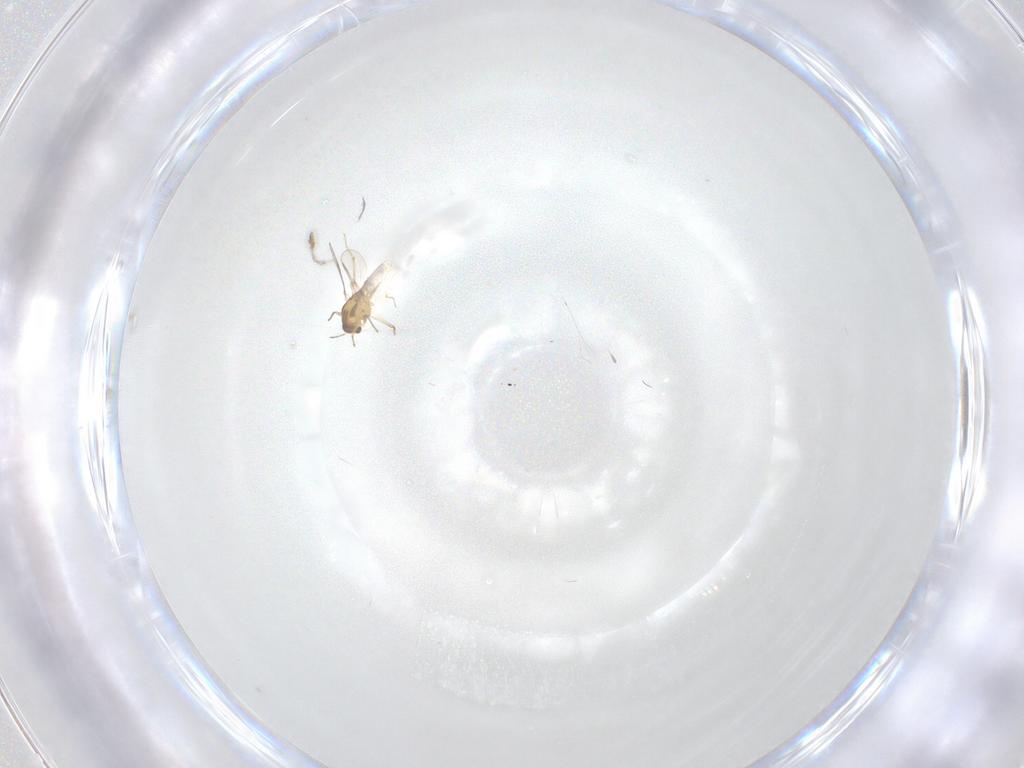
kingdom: Animalia
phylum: Arthropoda
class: Insecta
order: Diptera
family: Chironomidae
